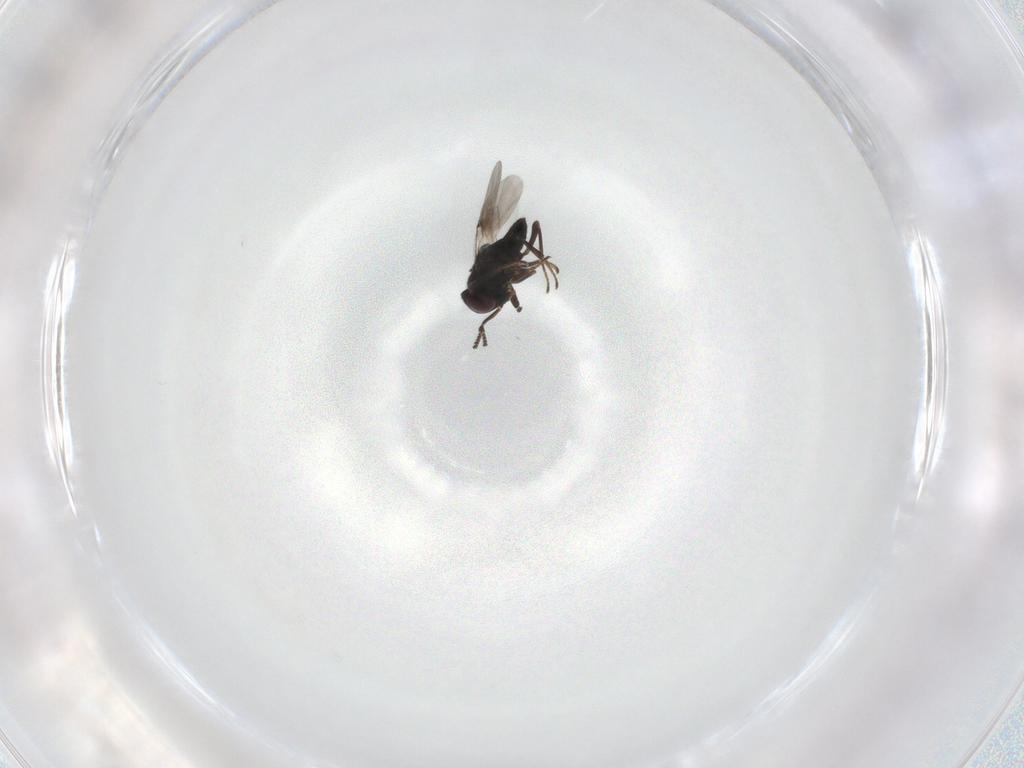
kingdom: Animalia
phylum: Arthropoda
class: Insecta
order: Hymenoptera
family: Encyrtidae
